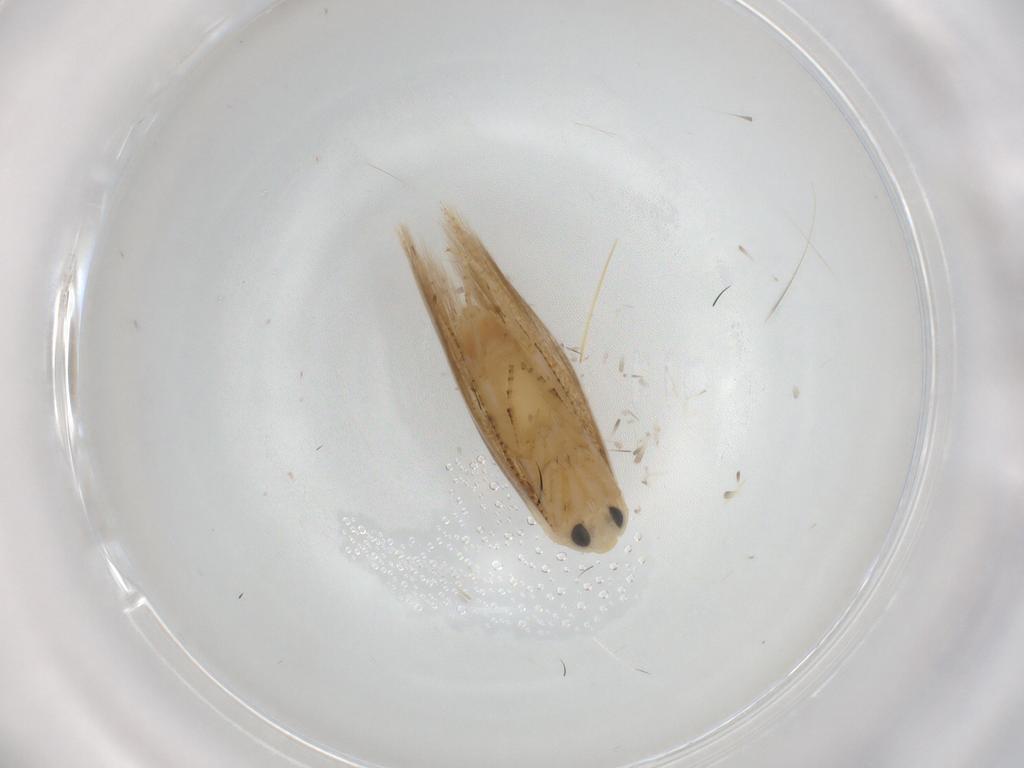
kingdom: Animalia
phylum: Arthropoda
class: Insecta
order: Lepidoptera
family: Bucculatricidae
